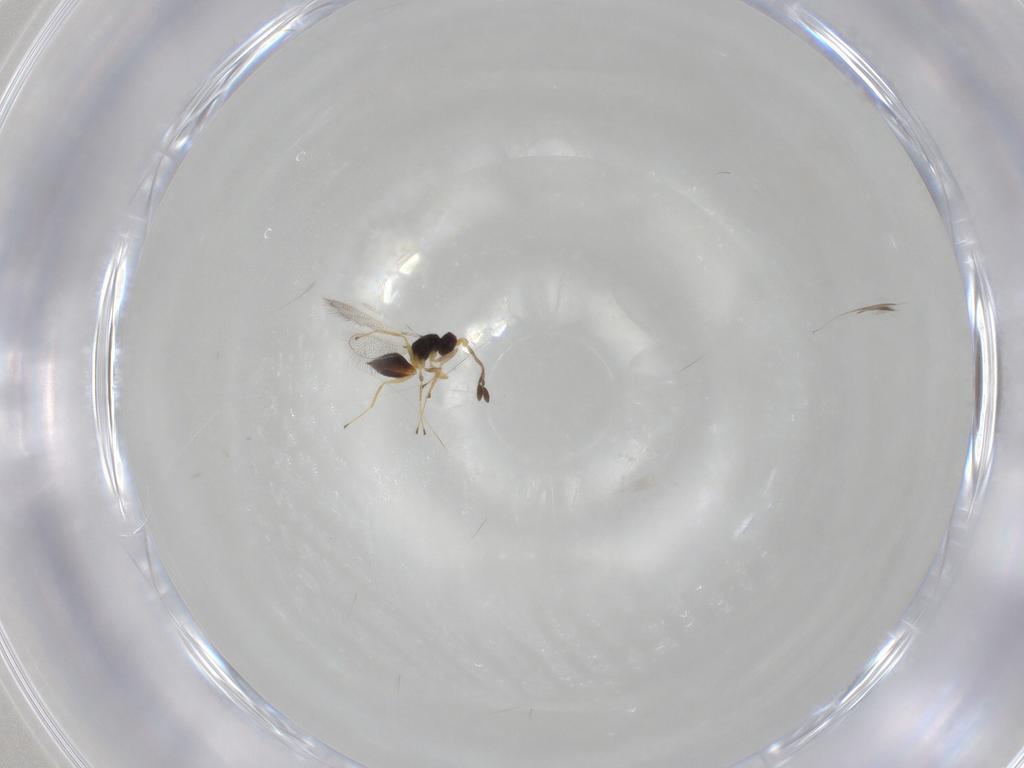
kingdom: Animalia
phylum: Arthropoda
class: Insecta
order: Hymenoptera
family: Mymaridae
